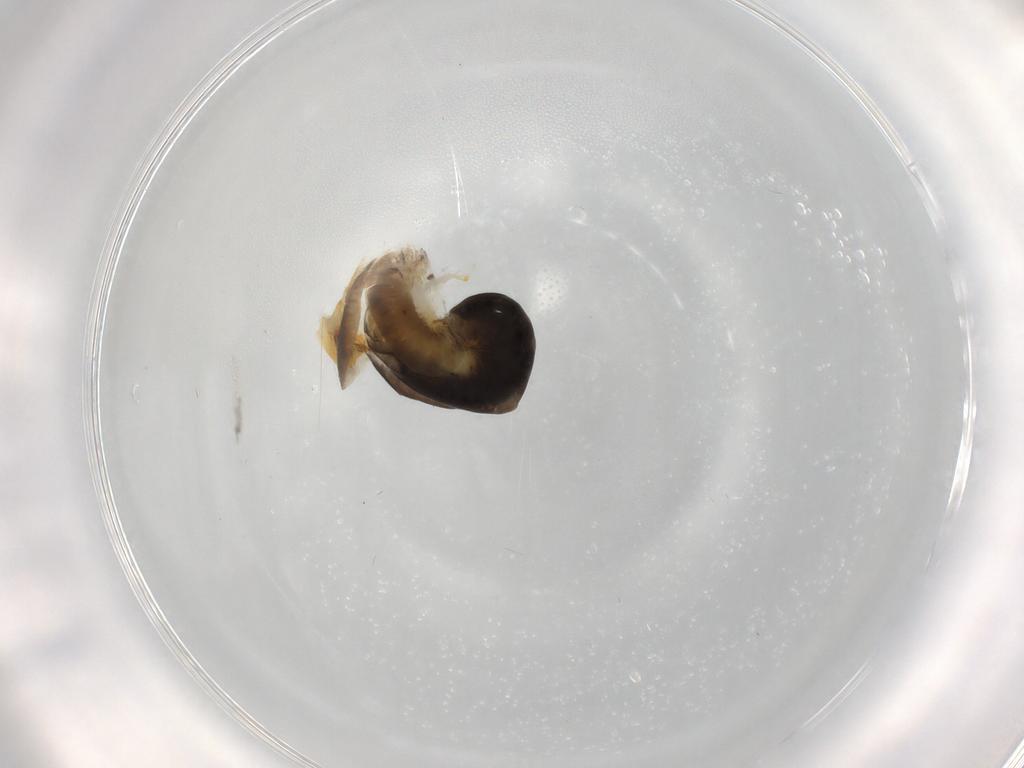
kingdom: Animalia
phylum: Arthropoda
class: Insecta
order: Hymenoptera
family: Dryinidae
